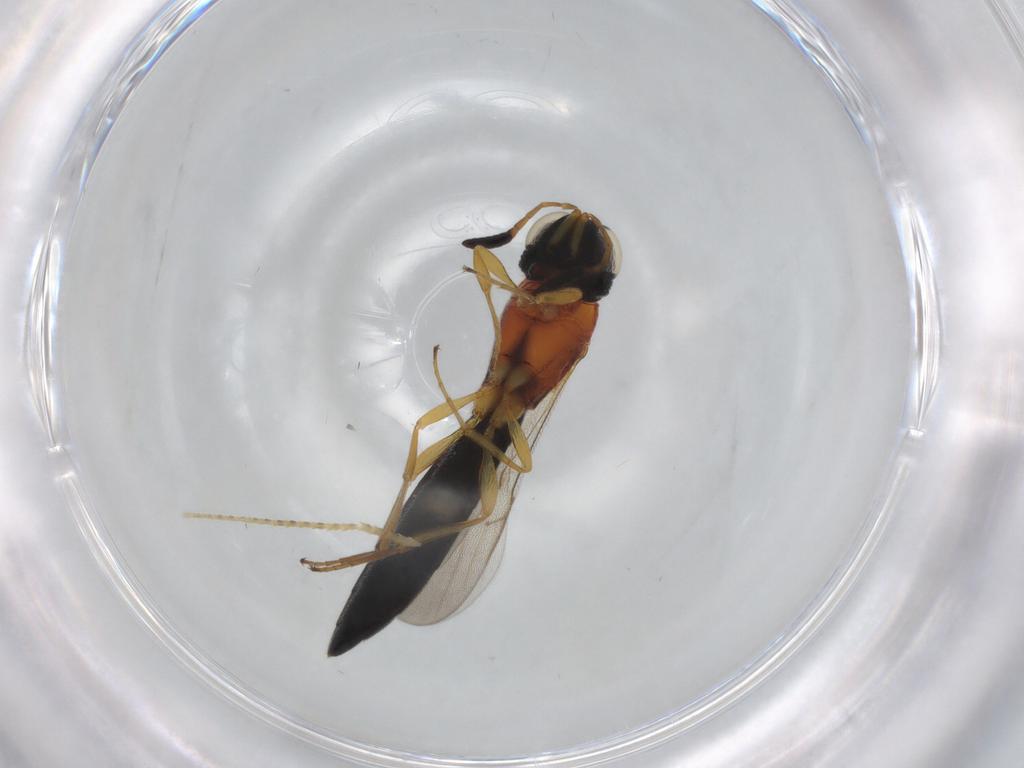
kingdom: Animalia
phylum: Arthropoda
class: Insecta
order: Hymenoptera
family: Scelionidae
